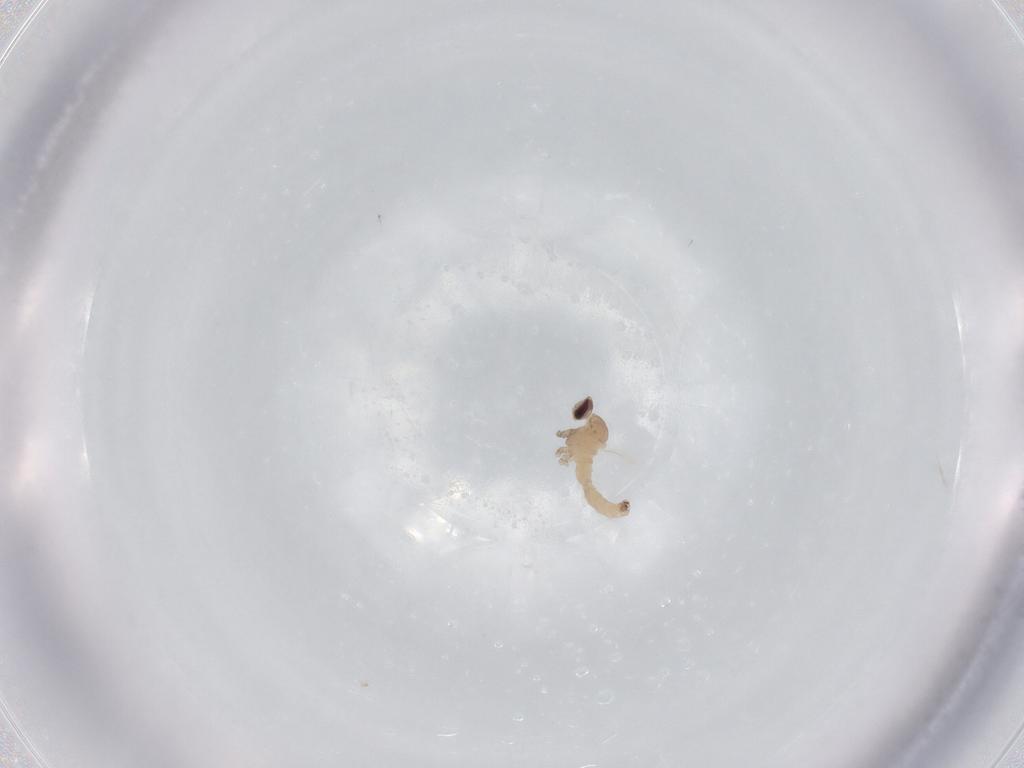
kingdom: Animalia
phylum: Arthropoda
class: Insecta
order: Diptera
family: Cecidomyiidae
